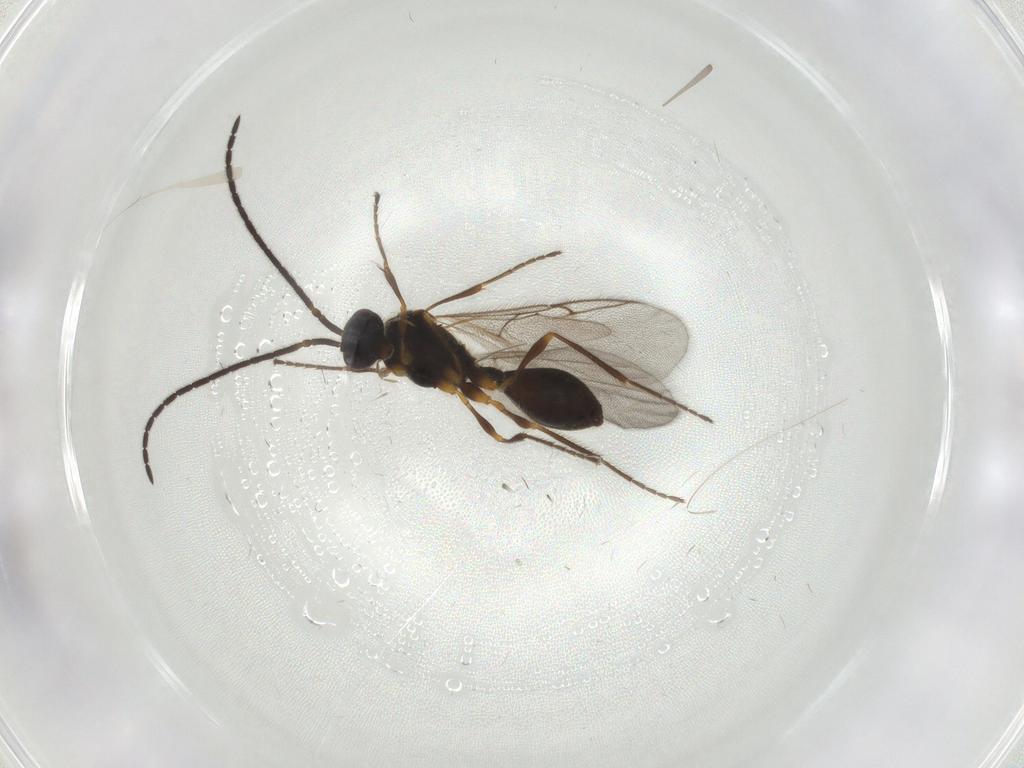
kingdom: Animalia
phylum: Arthropoda
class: Insecta
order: Hymenoptera
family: Diapriidae
